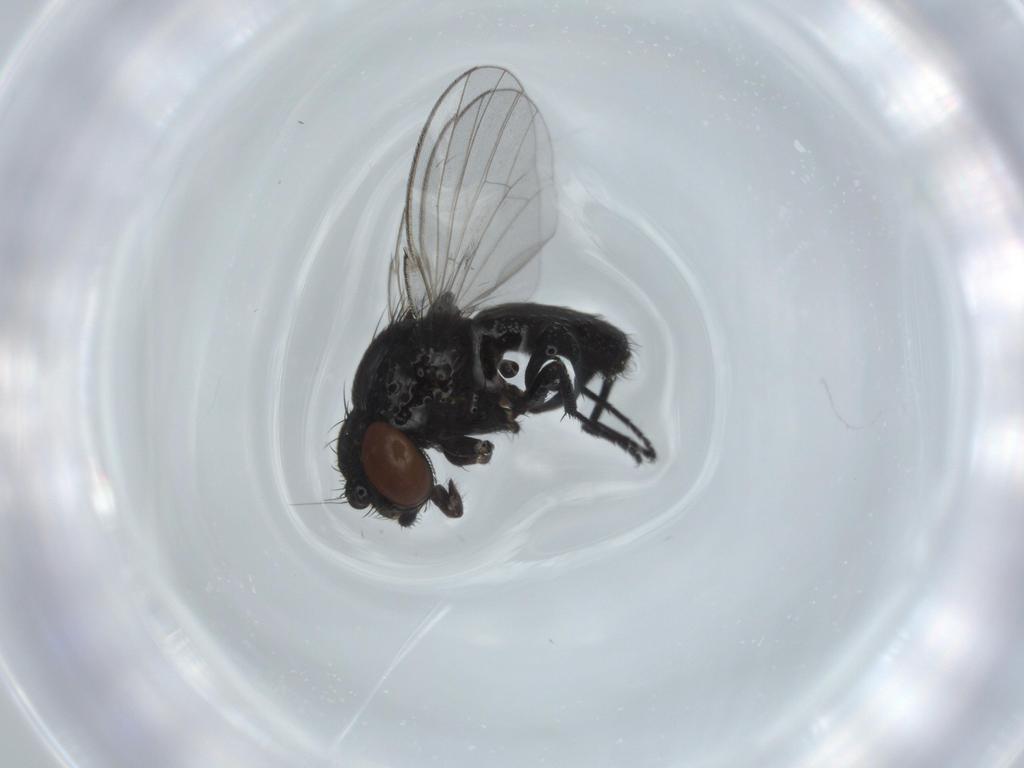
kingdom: Animalia
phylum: Arthropoda
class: Insecta
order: Diptera
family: Milichiidae
